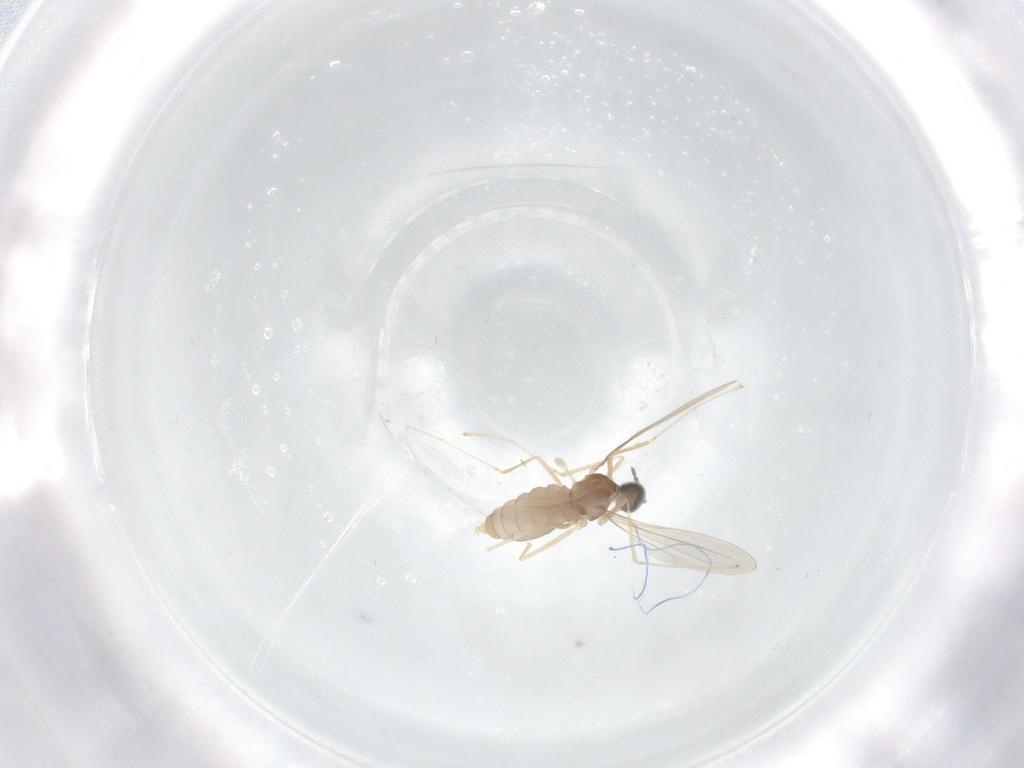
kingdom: Animalia
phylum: Arthropoda
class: Insecta
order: Diptera
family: Cecidomyiidae
